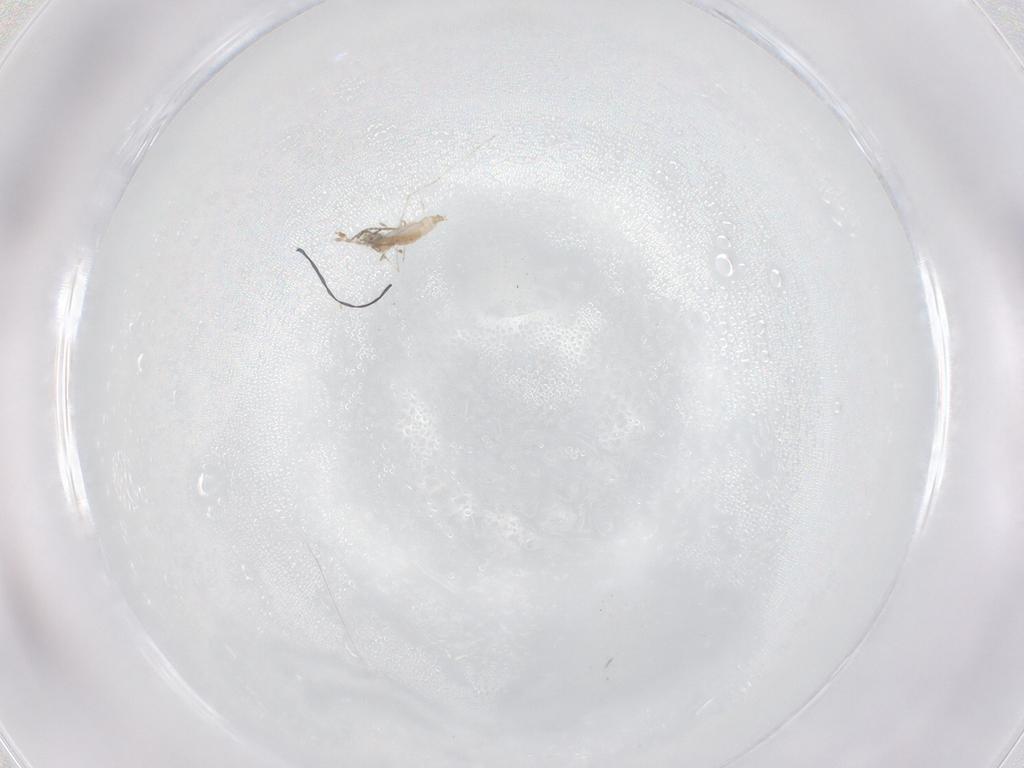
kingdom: Animalia
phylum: Arthropoda
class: Insecta
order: Diptera
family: Cecidomyiidae
